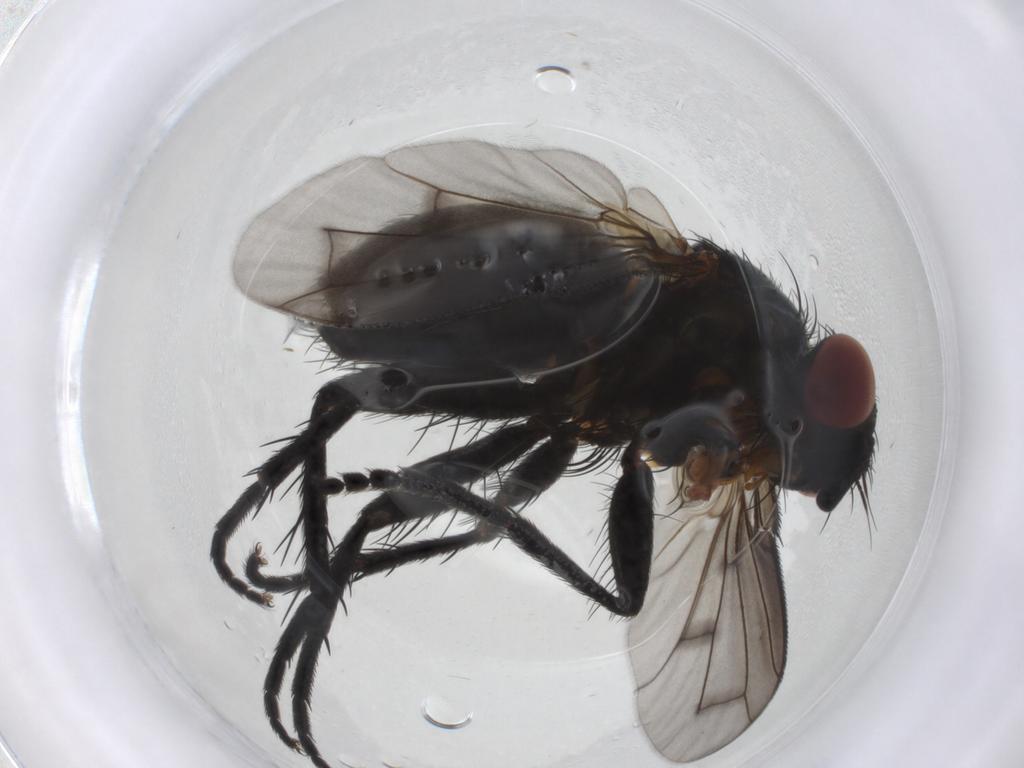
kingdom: Animalia
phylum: Arthropoda
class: Insecta
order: Diptera
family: Tachinidae
